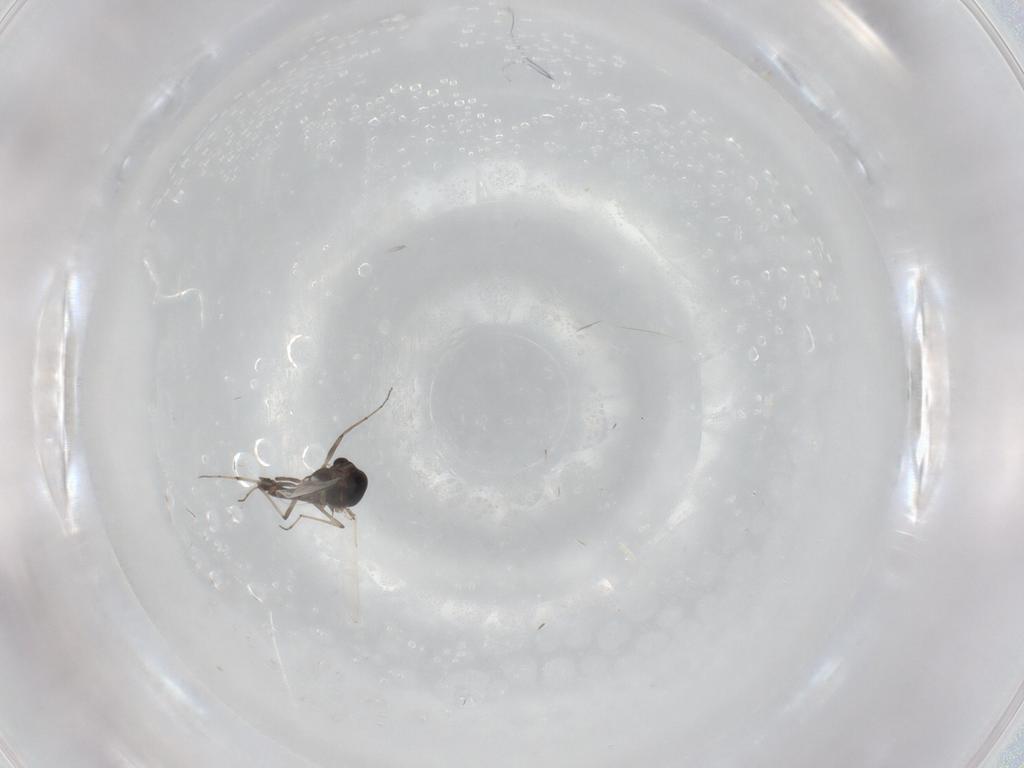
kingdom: Animalia
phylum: Arthropoda
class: Insecta
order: Diptera
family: Chironomidae
